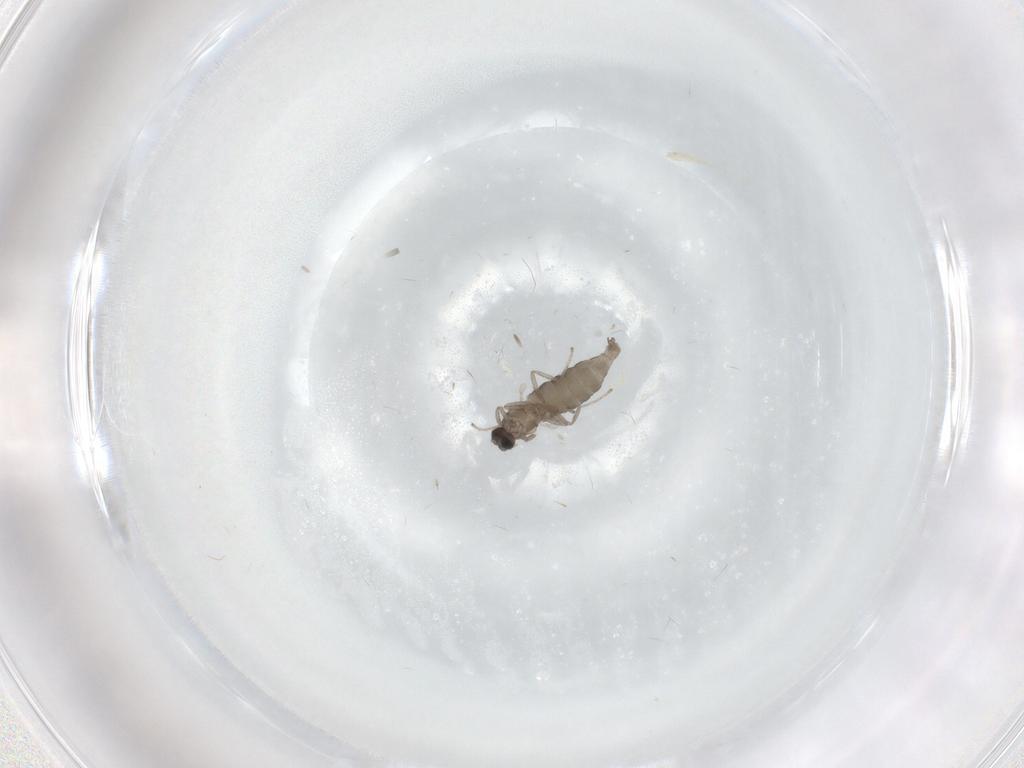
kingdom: Animalia
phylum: Arthropoda
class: Insecta
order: Diptera
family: Cecidomyiidae
